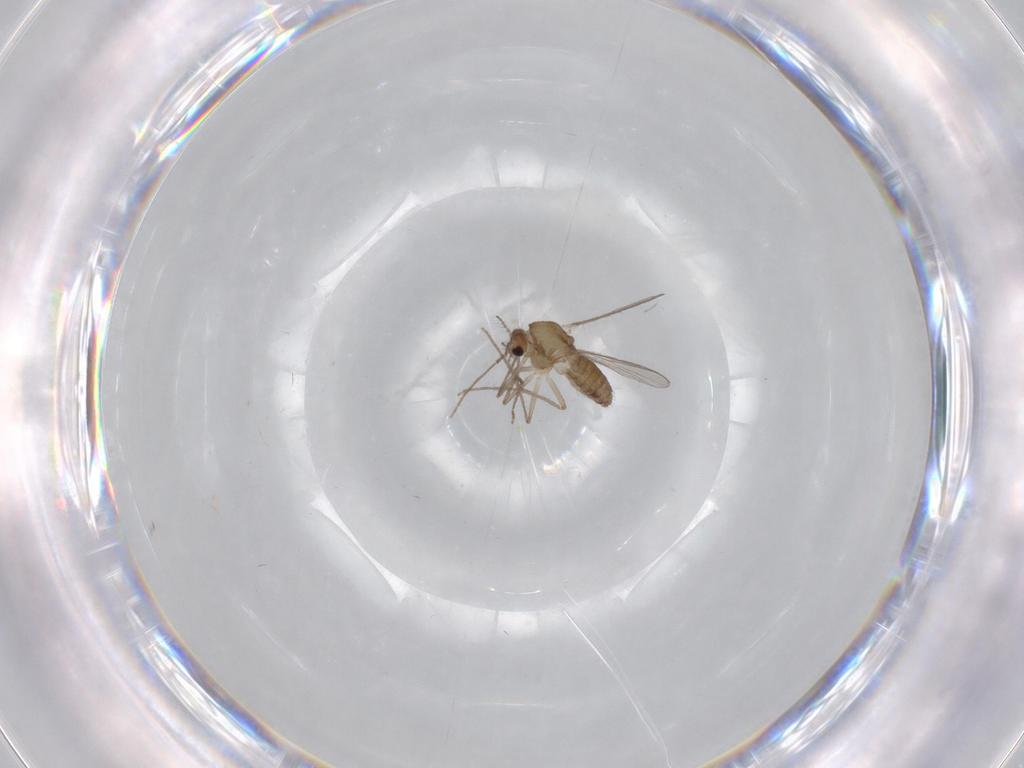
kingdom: Animalia
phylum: Arthropoda
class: Insecta
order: Diptera
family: Chironomidae
